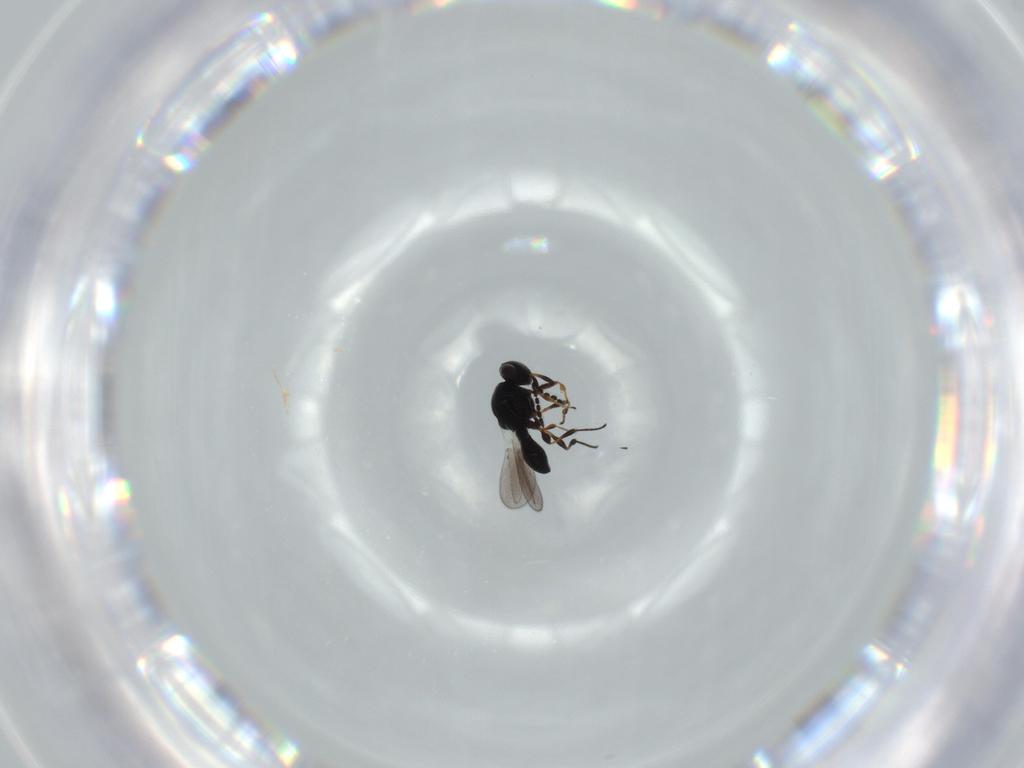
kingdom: Animalia
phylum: Arthropoda
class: Insecta
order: Hymenoptera
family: Platygastridae
